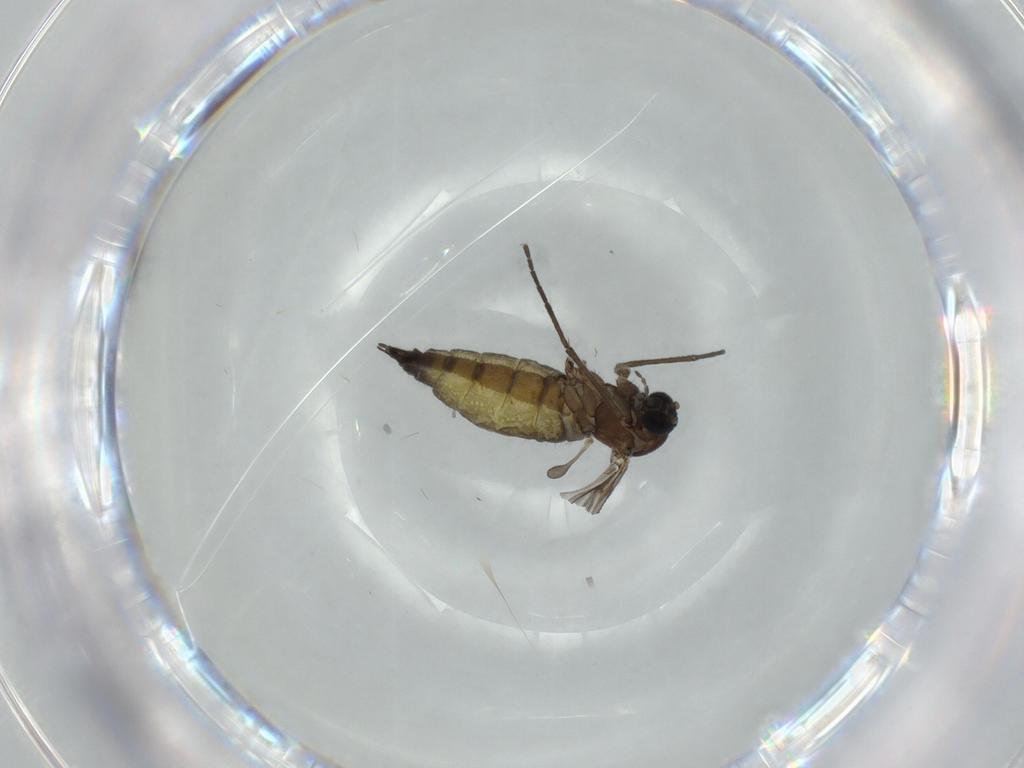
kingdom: Animalia
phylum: Arthropoda
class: Insecta
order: Diptera
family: Sciaridae
